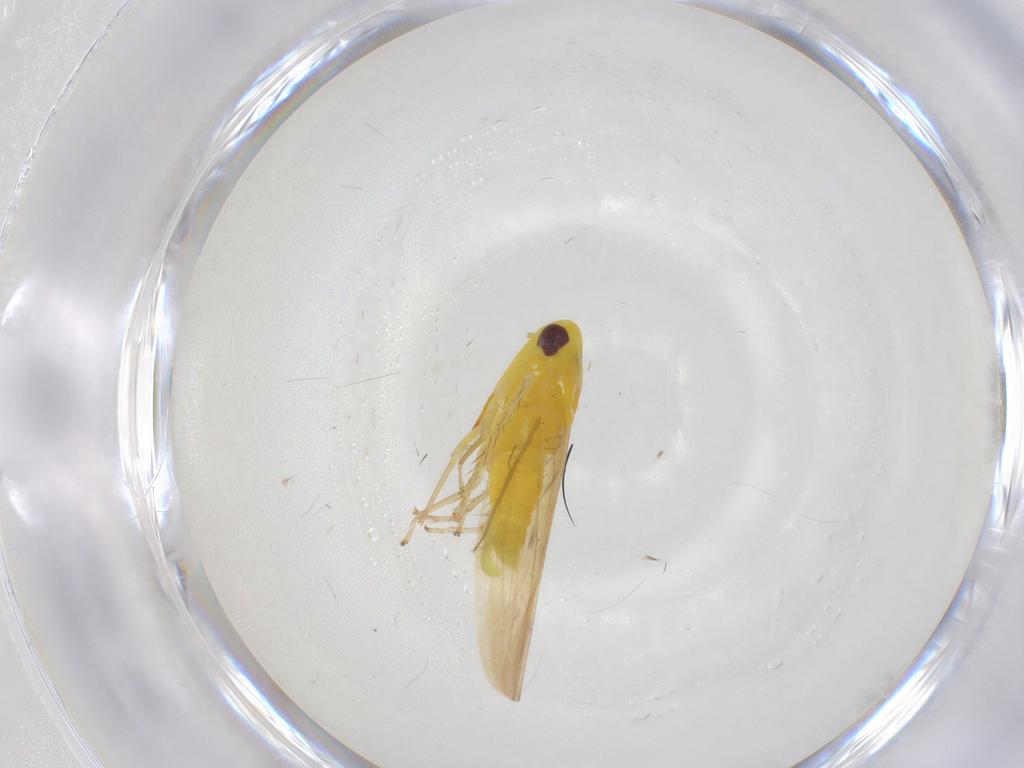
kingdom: Animalia
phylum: Arthropoda
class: Insecta
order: Hemiptera
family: Cicadellidae
